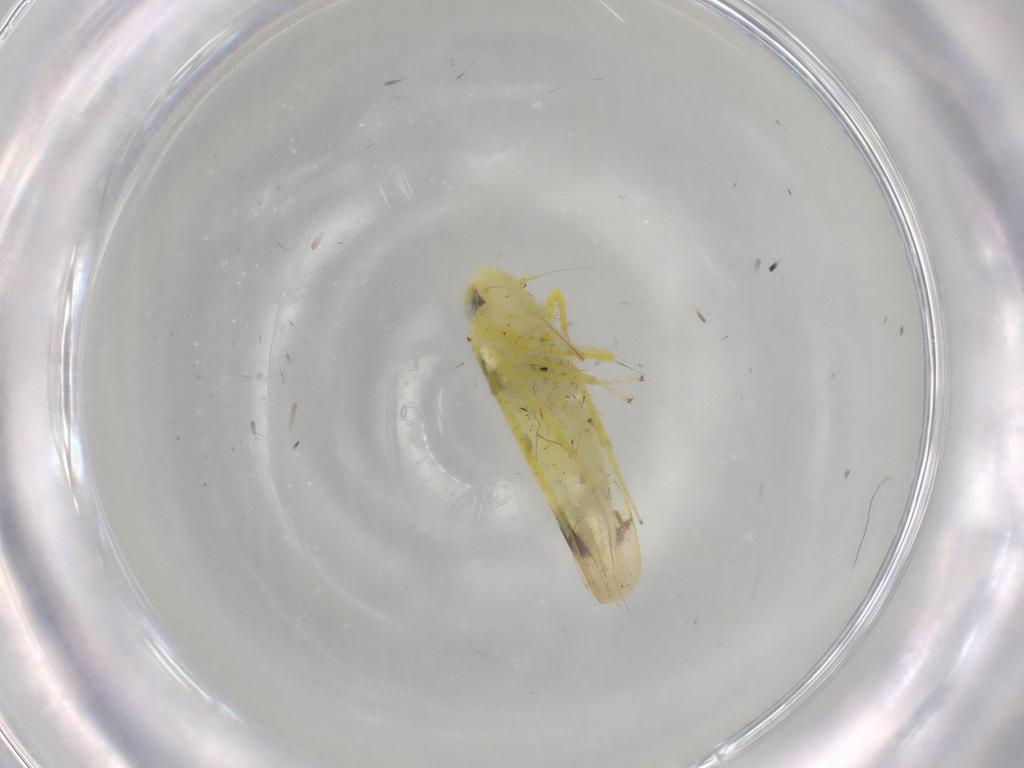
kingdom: Animalia
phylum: Arthropoda
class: Insecta
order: Hemiptera
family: Cicadellidae
